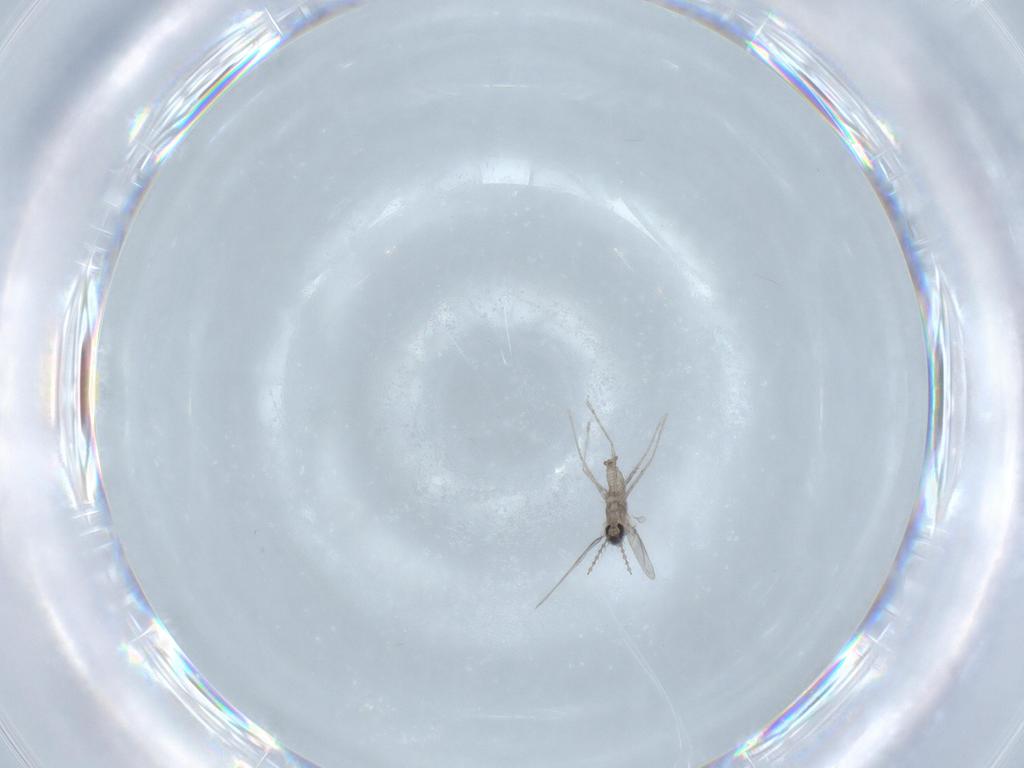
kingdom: Animalia
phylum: Arthropoda
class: Insecta
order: Diptera
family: Cecidomyiidae
